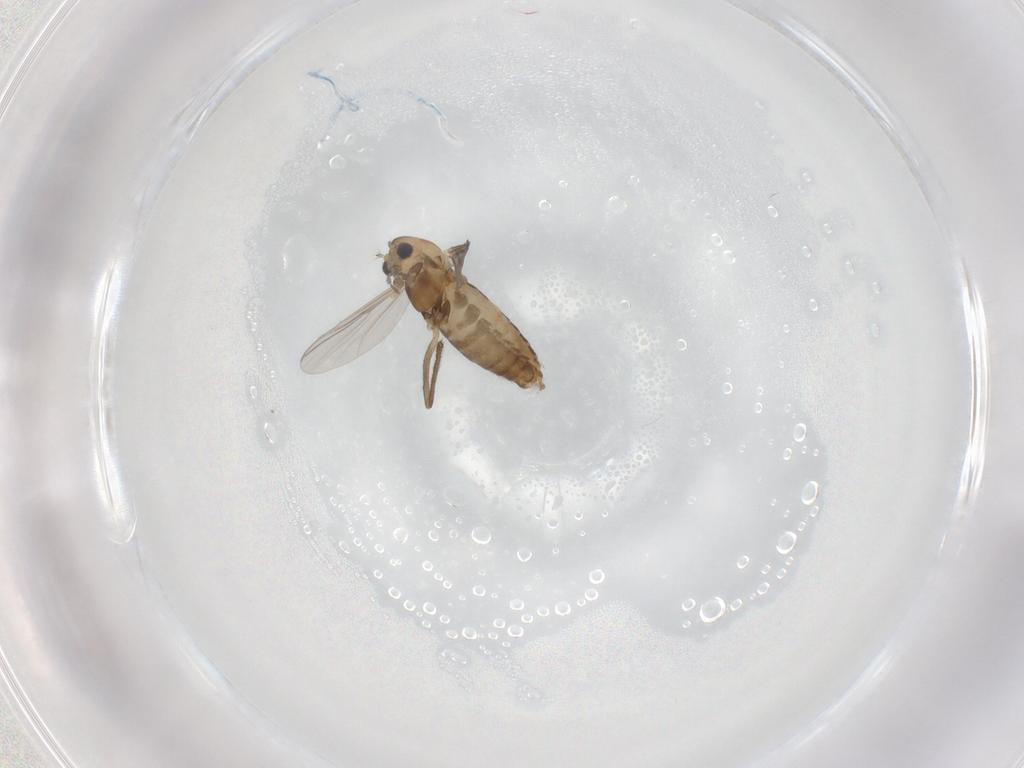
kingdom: Animalia
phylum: Arthropoda
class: Insecta
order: Diptera
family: Chironomidae
